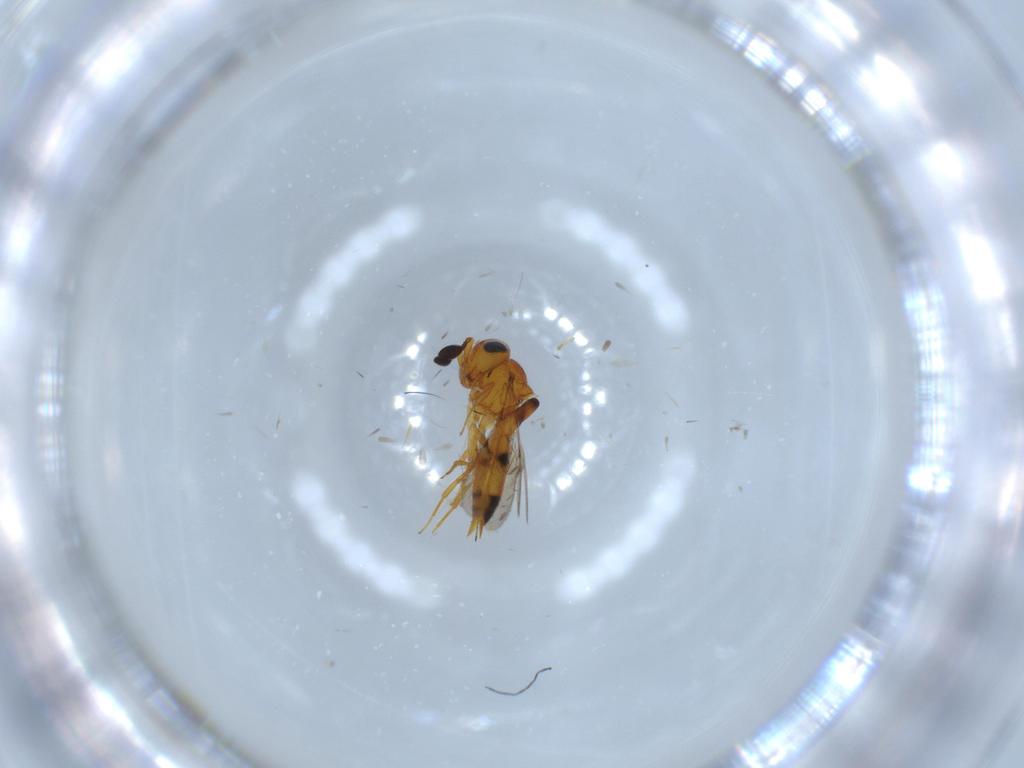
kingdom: Animalia
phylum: Arthropoda
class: Insecta
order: Hymenoptera
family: Scelionidae
